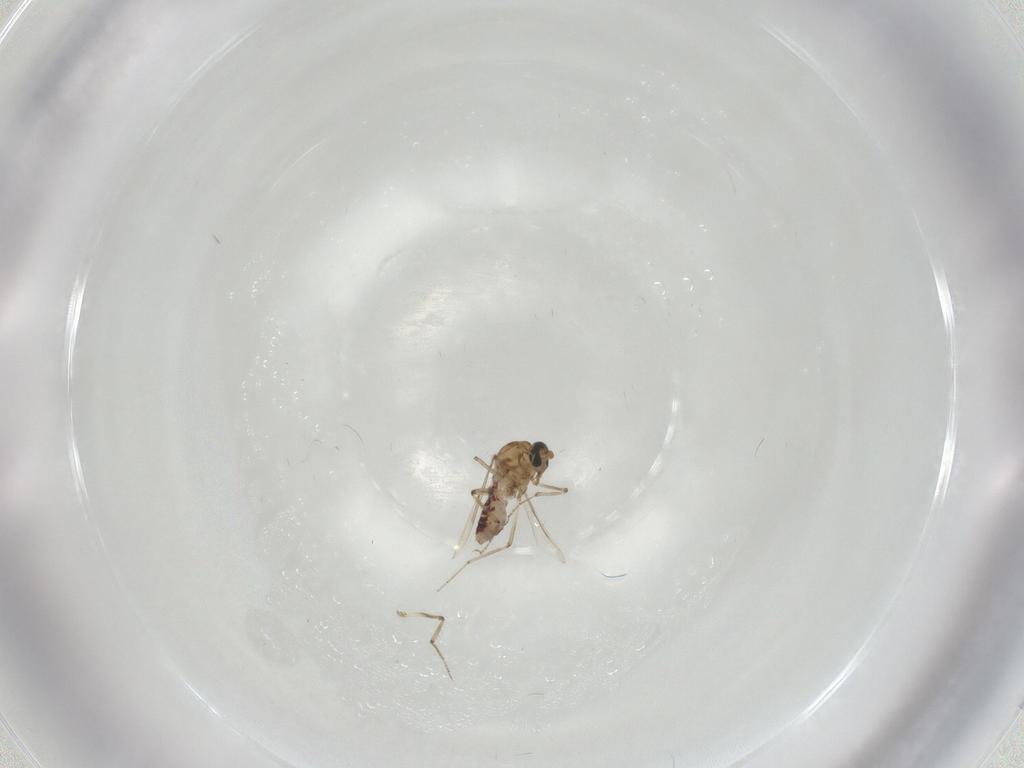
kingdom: Animalia
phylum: Arthropoda
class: Insecta
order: Diptera
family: Ceratopogonidae
